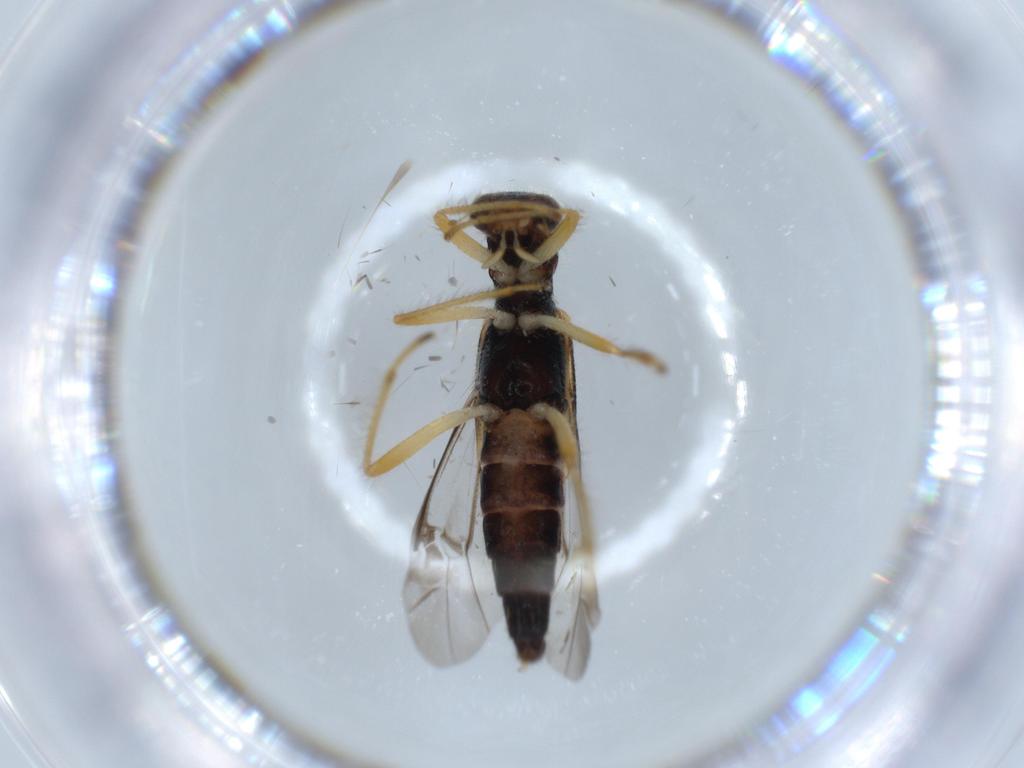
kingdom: Animalia
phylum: Arthropoda
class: Insecta
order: Coleoptera
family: Cleridae
